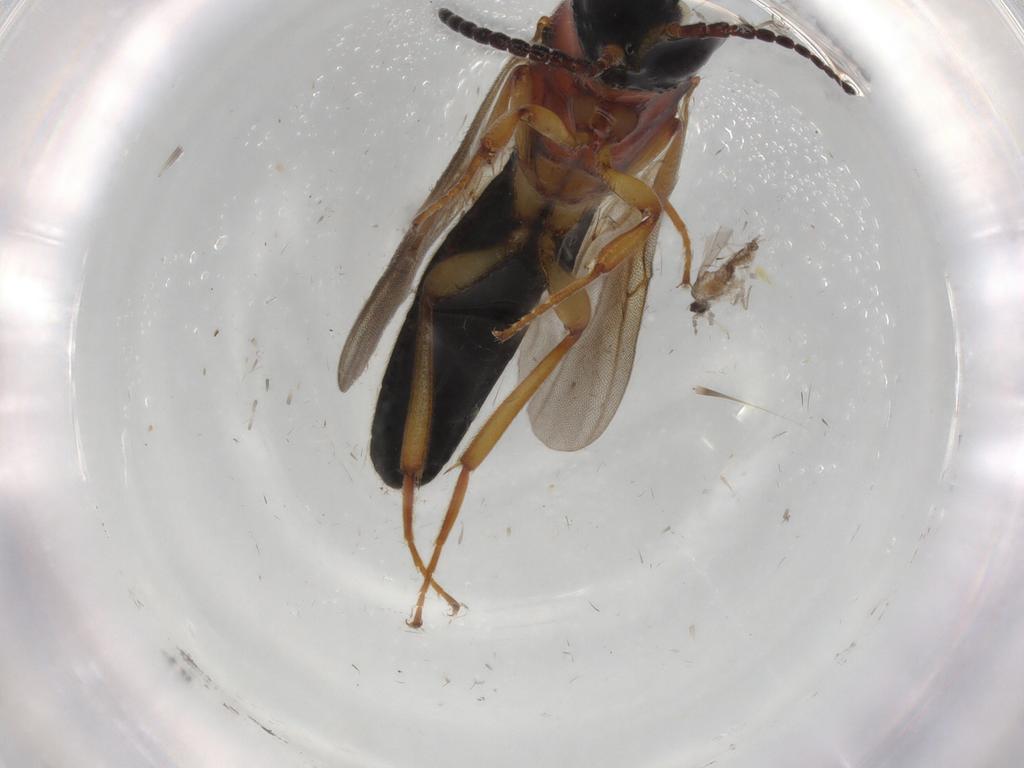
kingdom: Animalia
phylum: Arthropoda
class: Insecta
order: Diptera
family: Cecidomyiidae
